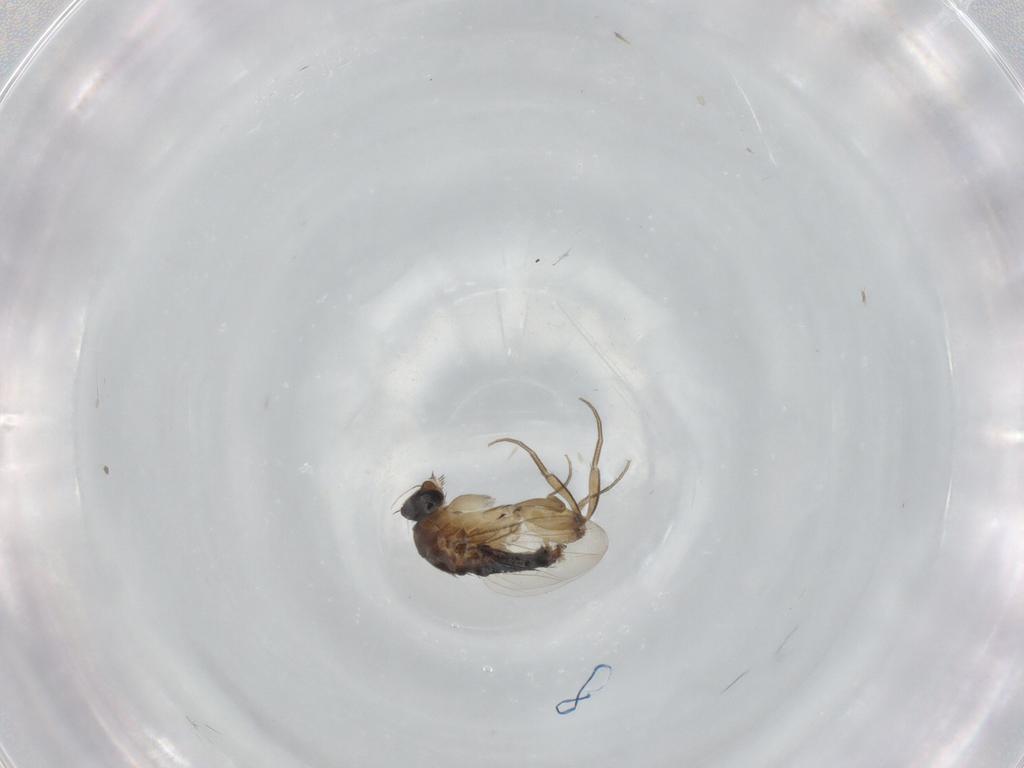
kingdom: Animalia
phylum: Arthropoda
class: Insecta
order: Diptera
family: Phoridae
